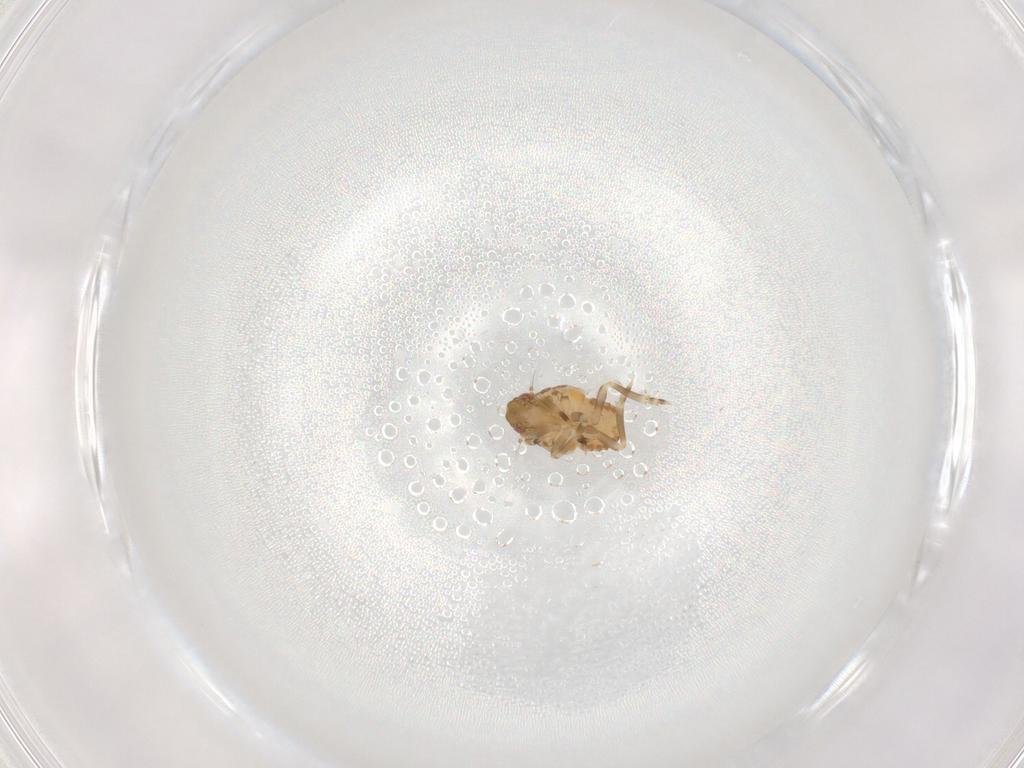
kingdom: Animalia
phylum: Arthropoda
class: Insecta
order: Hemiptera
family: Flatidae
